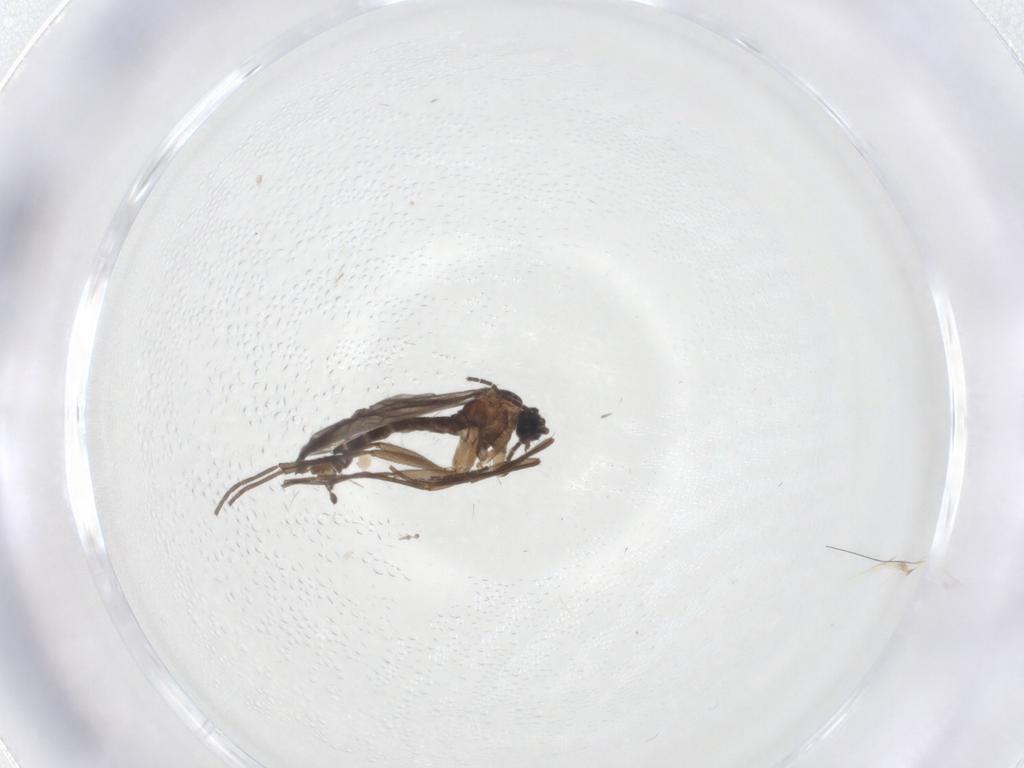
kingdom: Animalia
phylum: Arthropoda
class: Insecta
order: Diptera
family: Sciaridae
